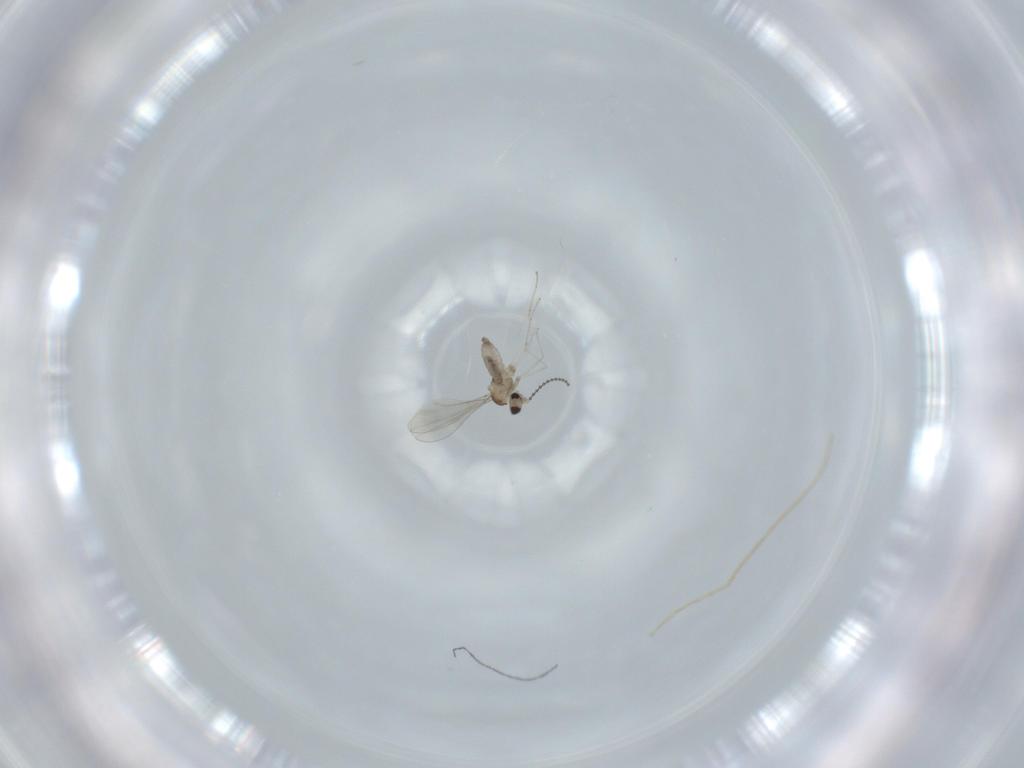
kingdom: Animalia
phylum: Arthropoda
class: Insecta
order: Diptera
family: Cecidomyiidae
